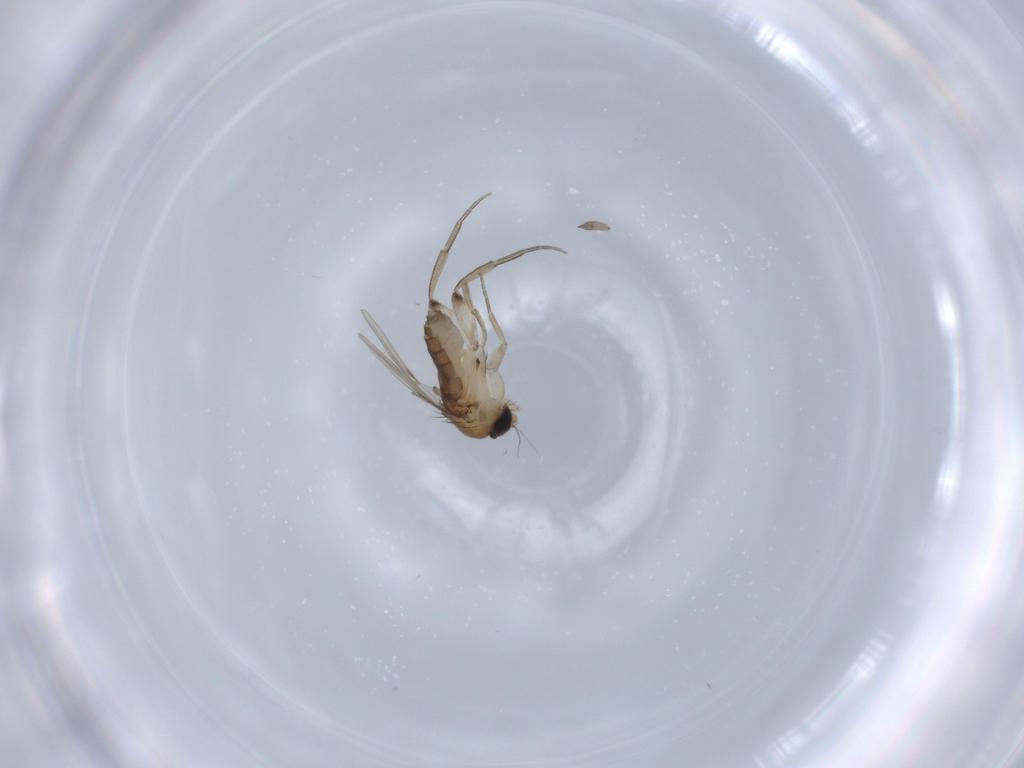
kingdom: Animalia
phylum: Arthropoda
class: Insecta
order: Diptera
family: Phoridae
